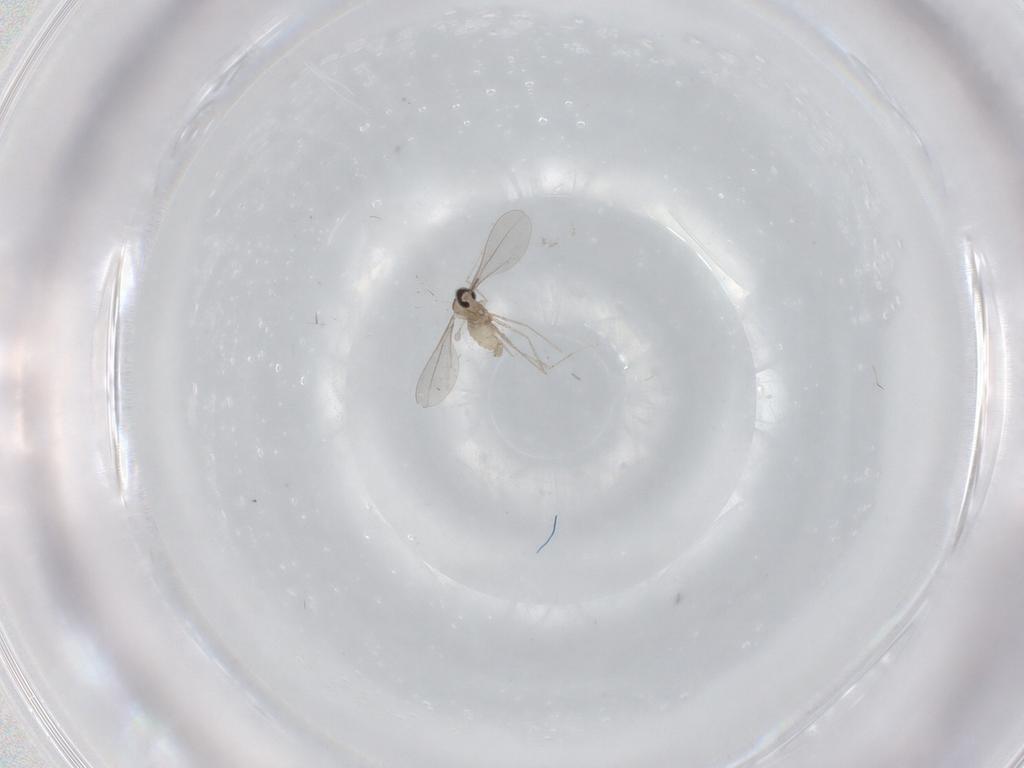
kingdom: Animalia
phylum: Arthropoda
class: Insecta
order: Diptera
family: Cecidomyiidae
